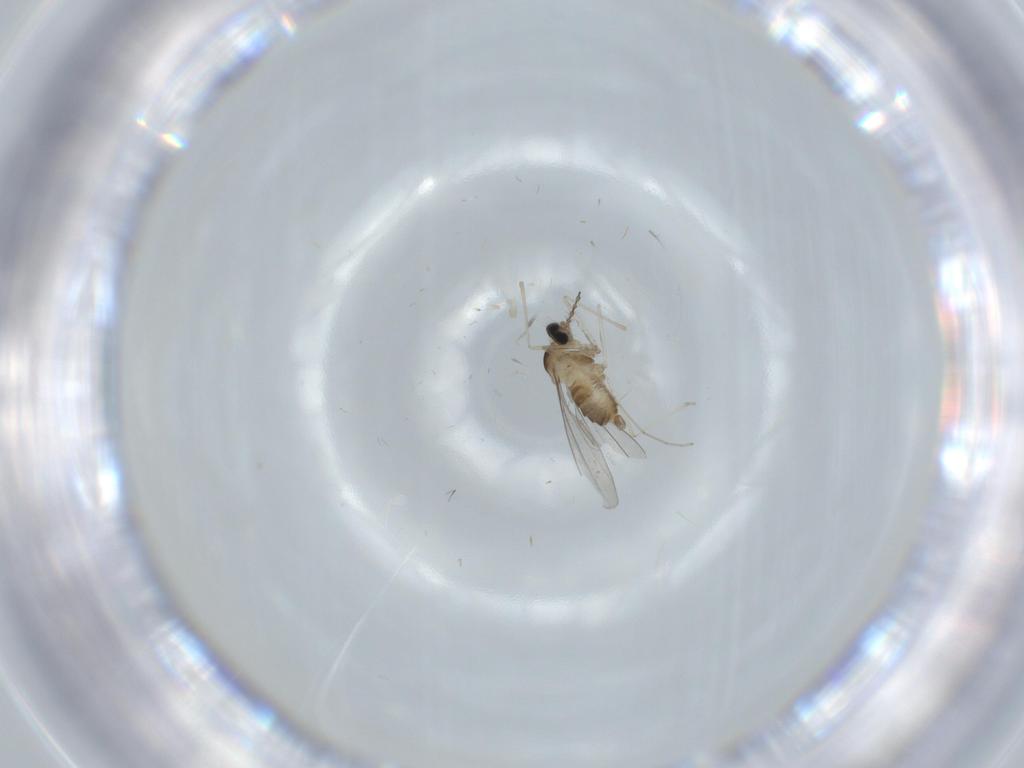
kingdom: Animalia
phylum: Arthropoda
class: Insecta
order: Diptera
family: Cecidomyiidae
